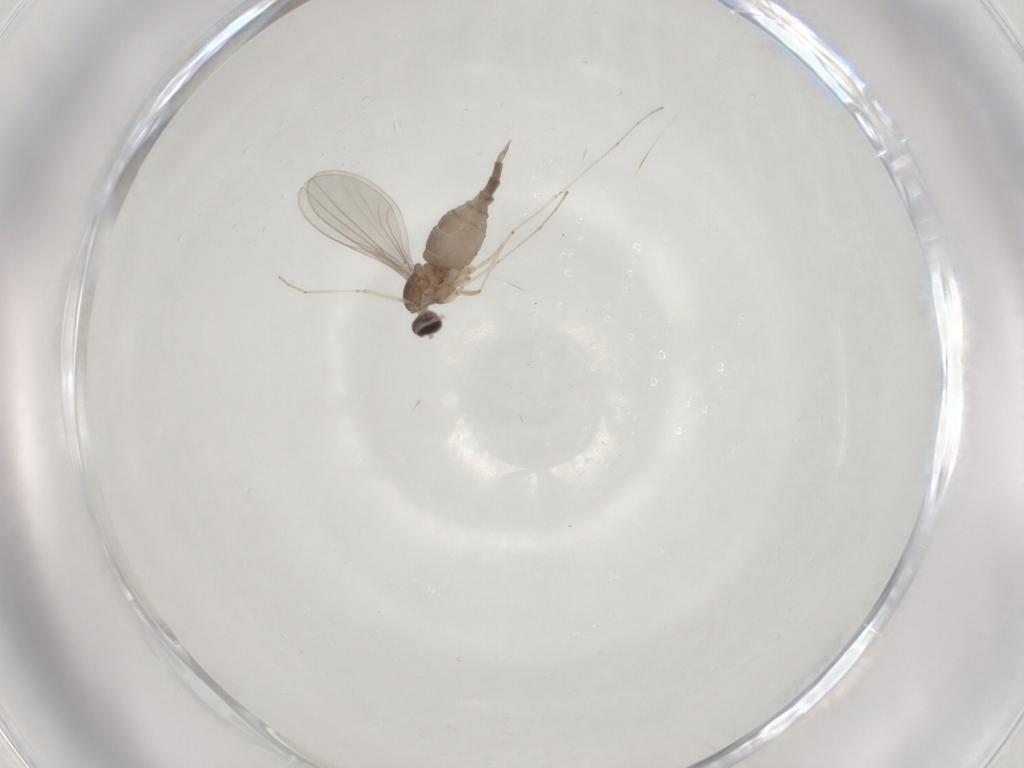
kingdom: Animalia
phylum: Arthropoda
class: Insecta
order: Diptera
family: Cecidomyiidae
